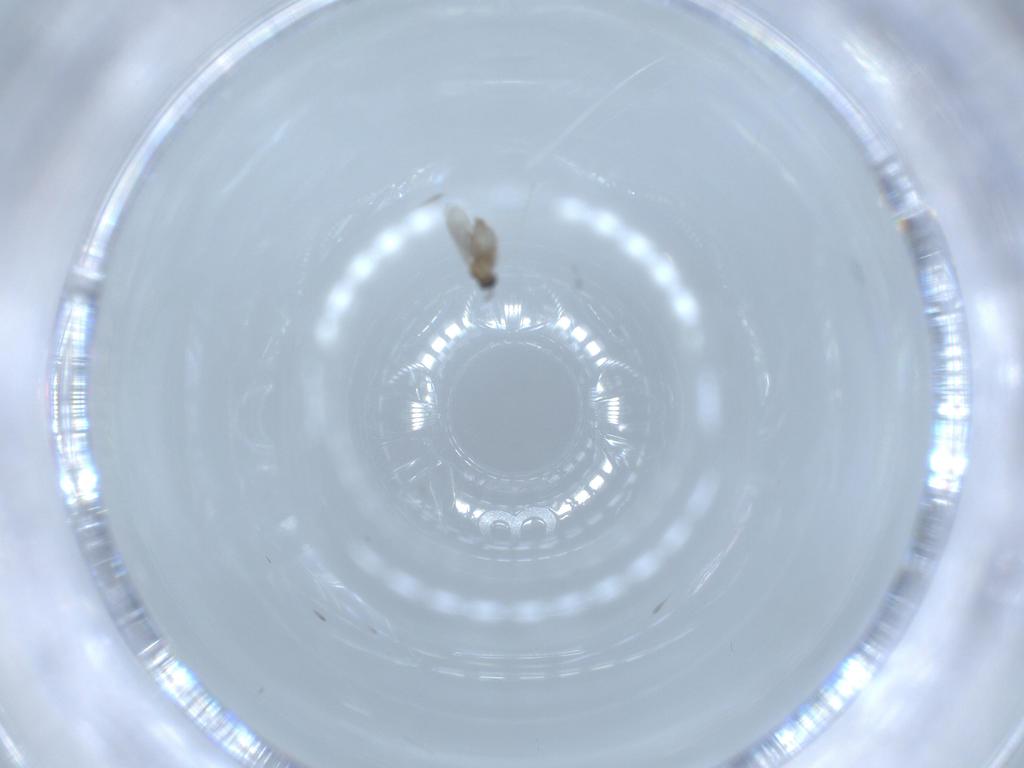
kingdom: Animalia
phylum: Arthropoda
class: Insecta
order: Diptera
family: Cecidomyiidae
